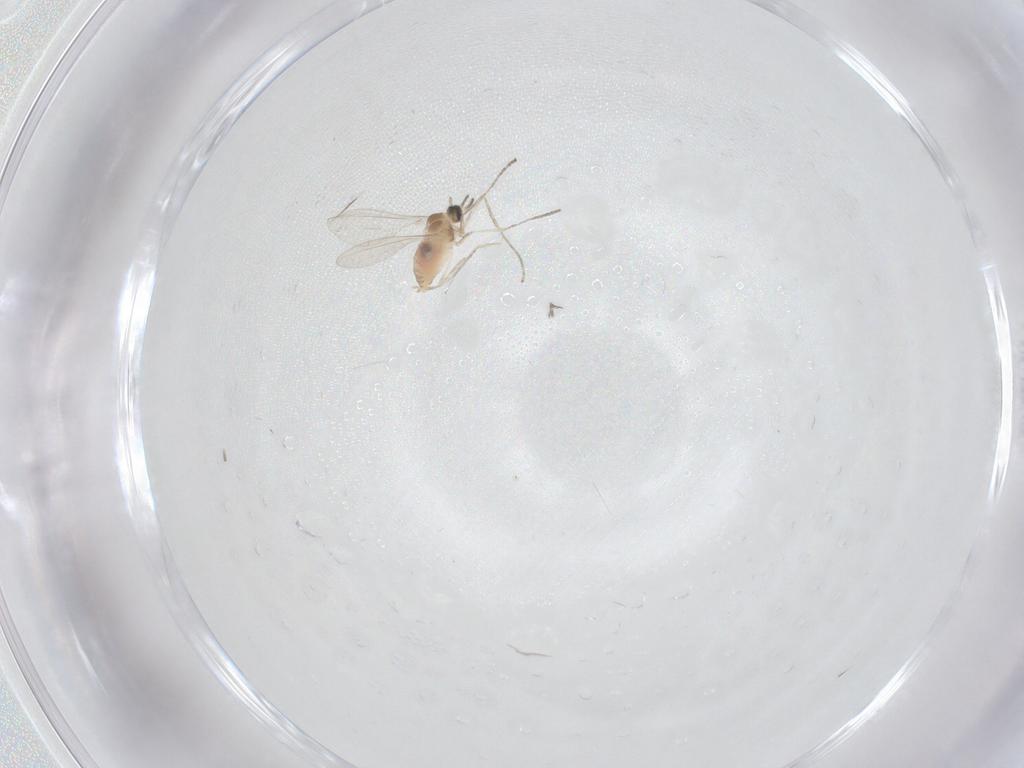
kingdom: Animalia
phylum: Arthropoda
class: Insecta
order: Diptera
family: Cecidomyiidae
